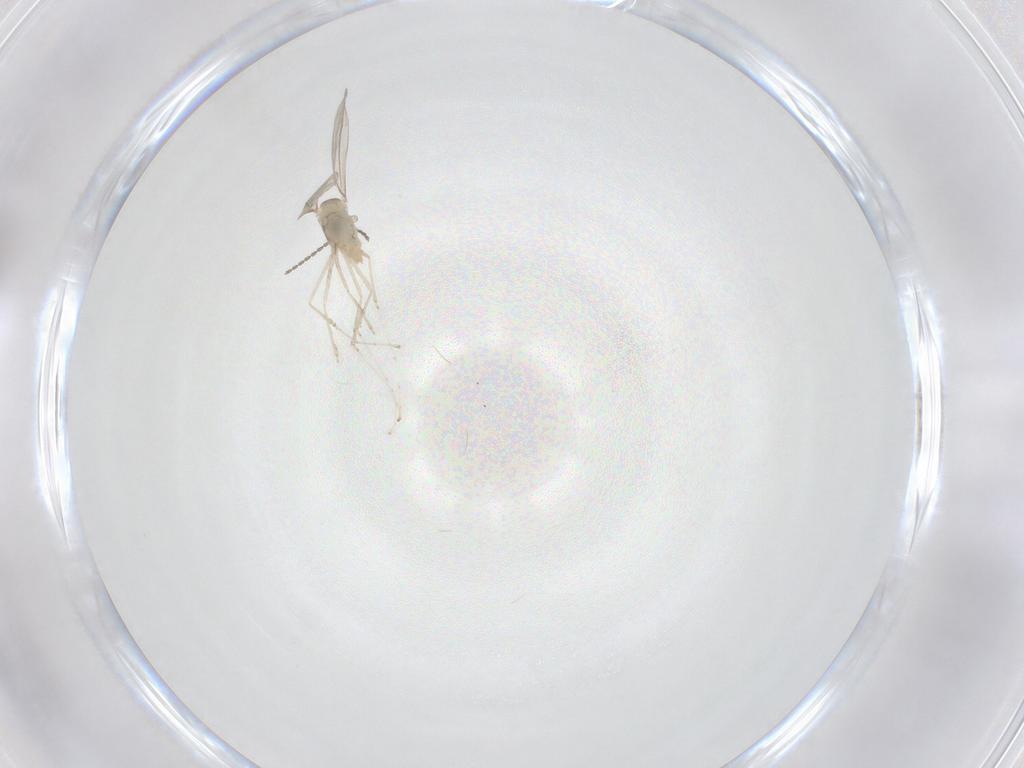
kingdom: Animalia
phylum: Arthropoda
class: Insecta
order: Diptera
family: Cecidomyiidae
